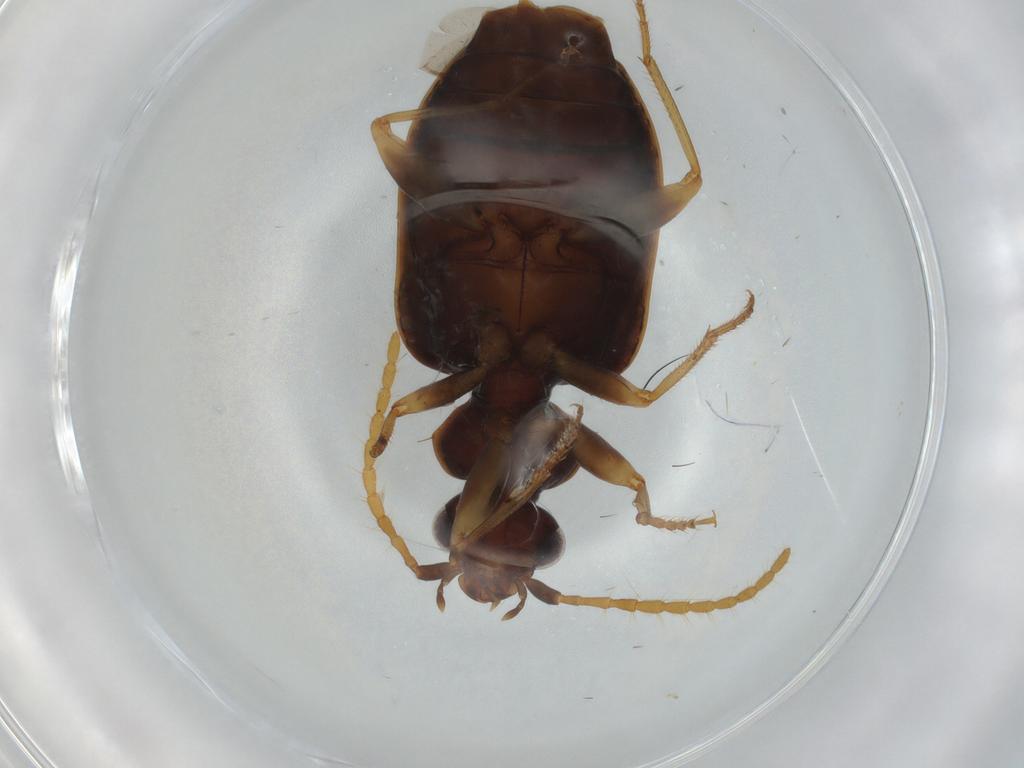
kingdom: Animalia
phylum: Arthropoda
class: Insecta
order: Coleoptera
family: Carabidae
